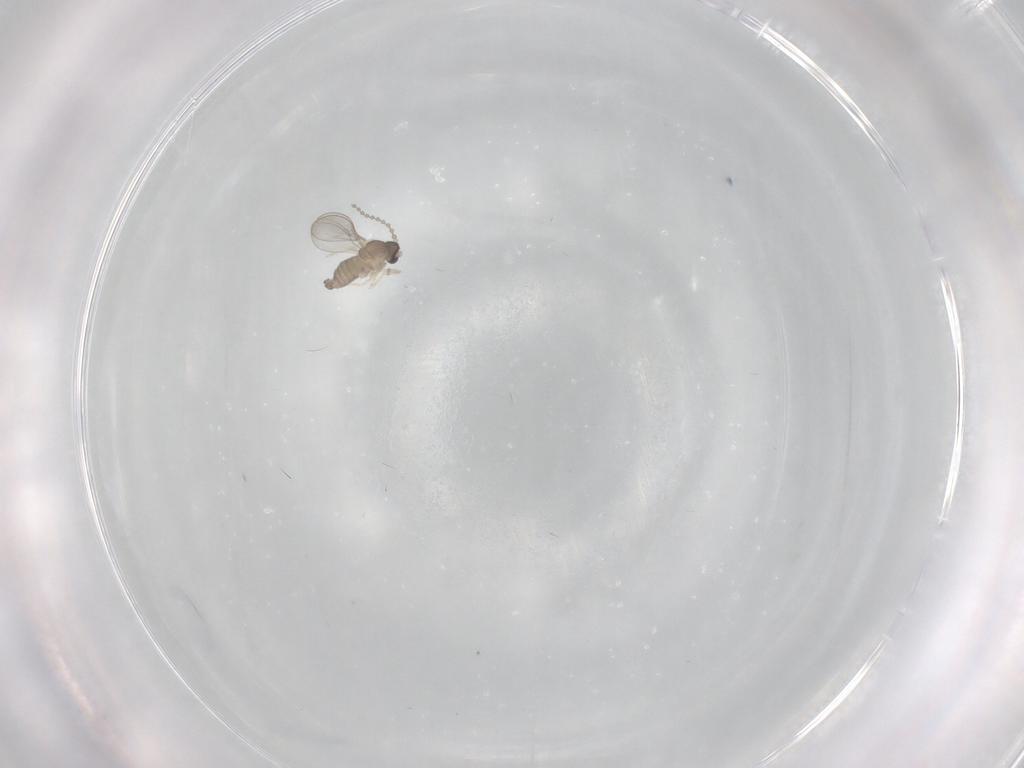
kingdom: Animalia
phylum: Arthropoda
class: Insecta
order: Diptera
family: Cecidomyiidae
